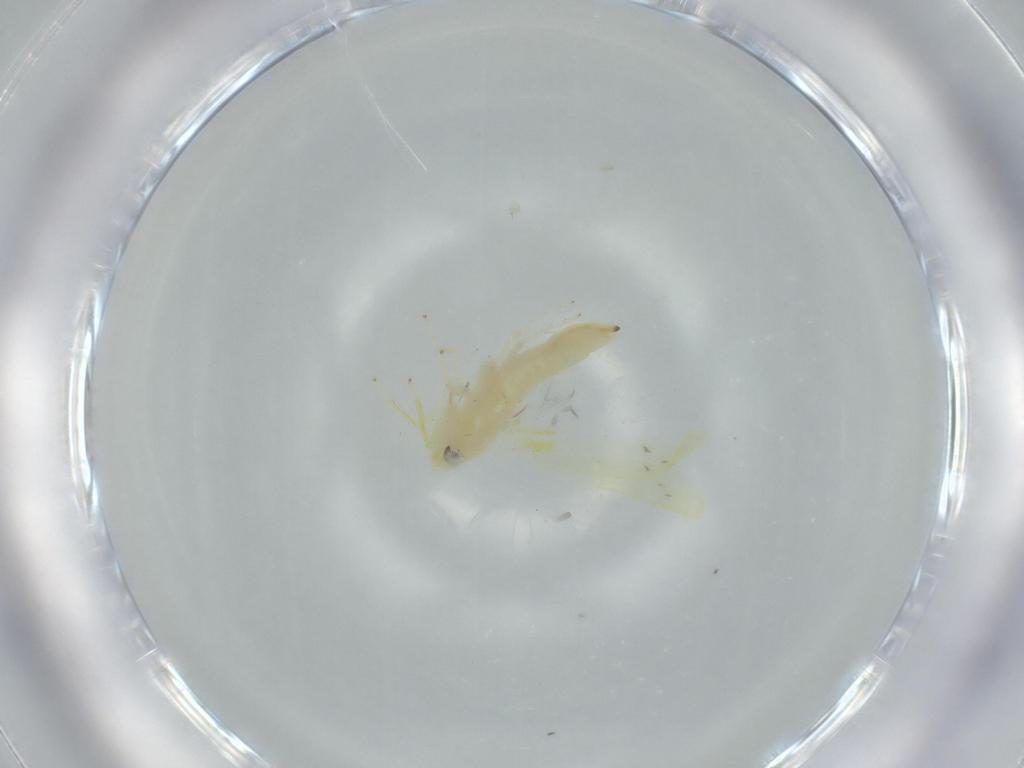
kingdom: Animalia
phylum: Arthropoda
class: Insecta
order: Hemiptera
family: Cicadellidae
